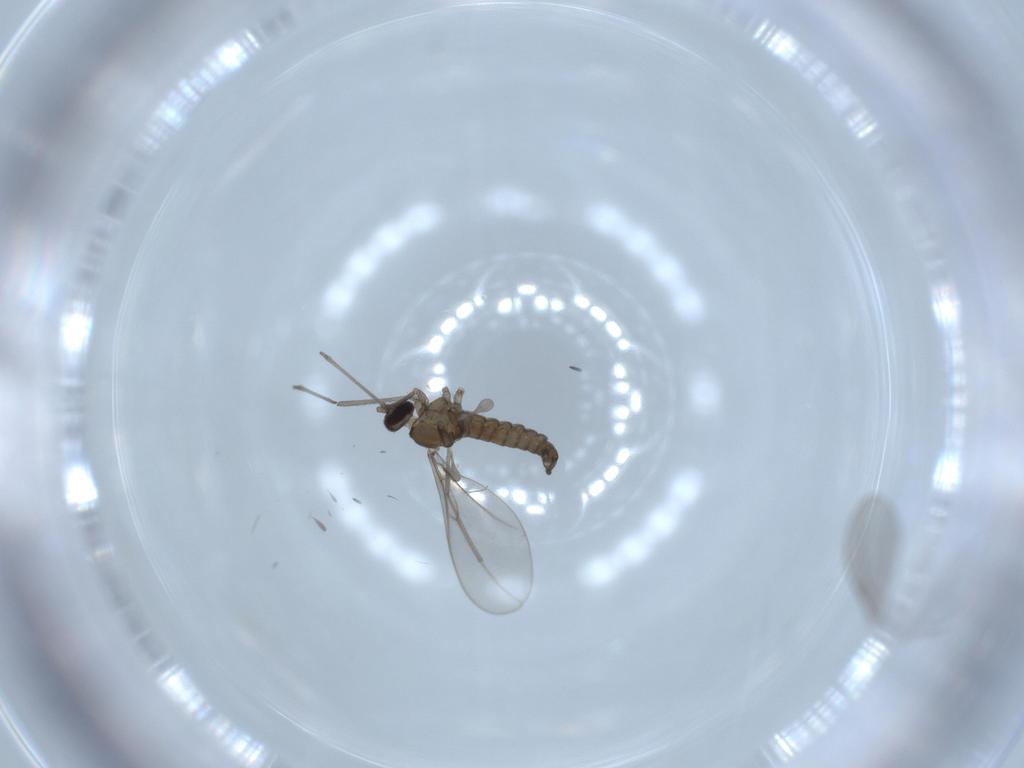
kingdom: Animalia
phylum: Arthropoda
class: Insecta
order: Diptera
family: Cecidomyiidae
